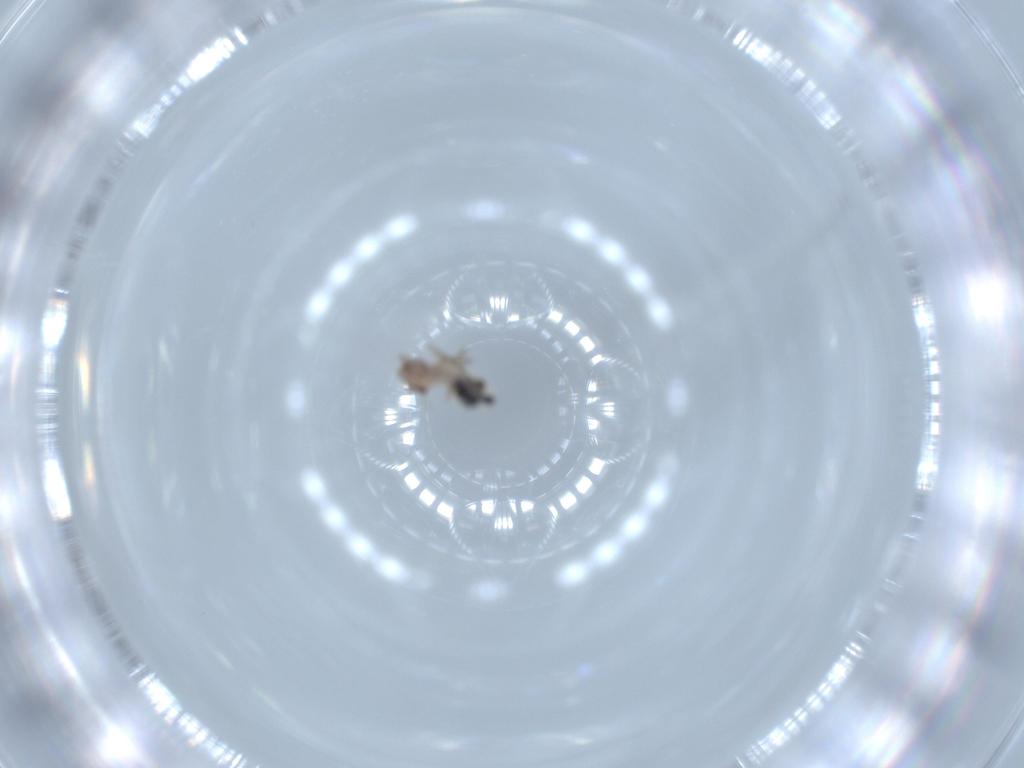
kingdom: Animalia
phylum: Arthropoda
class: Insecta
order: Psocodea
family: Lepidopsocidae
